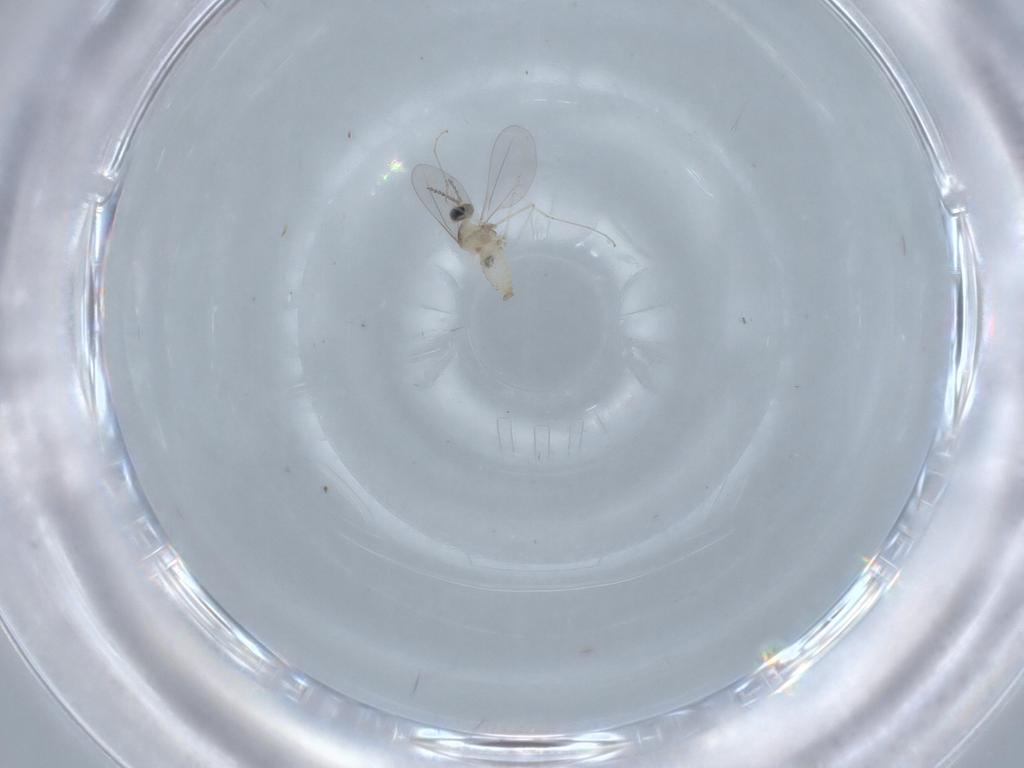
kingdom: Animalia
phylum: Arthropoda
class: Insecta
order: Diptera
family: Cecidomyiidae
